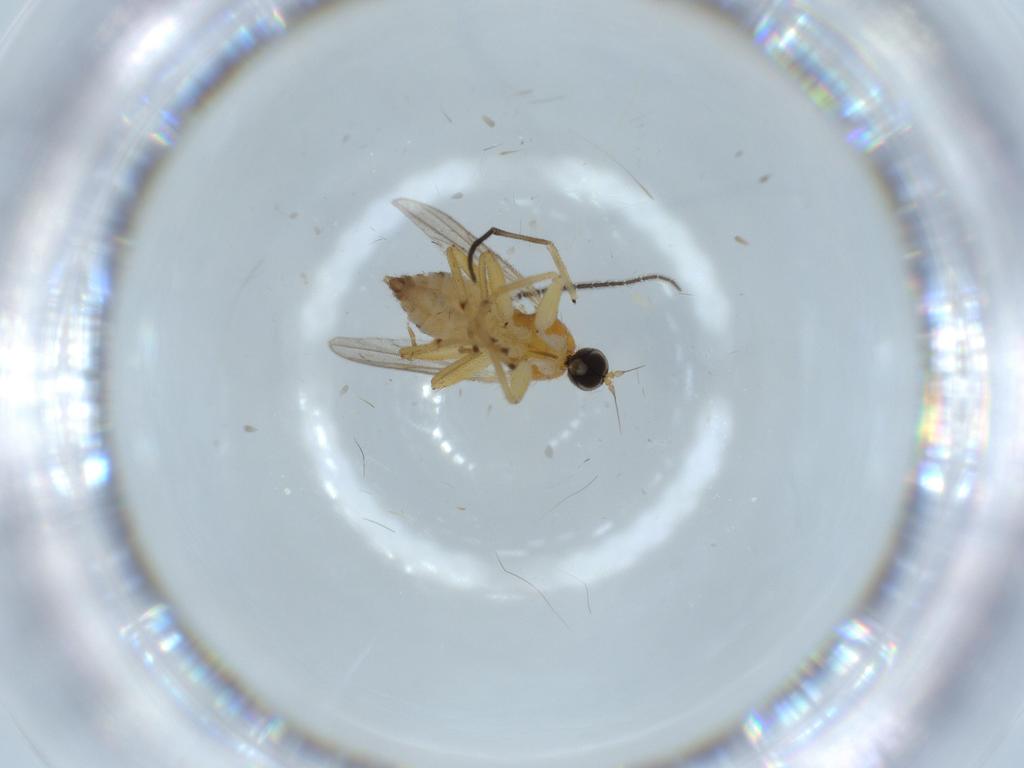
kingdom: Animalia
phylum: Arthropoda
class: Insecta
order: Diptera
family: Hybotidae
